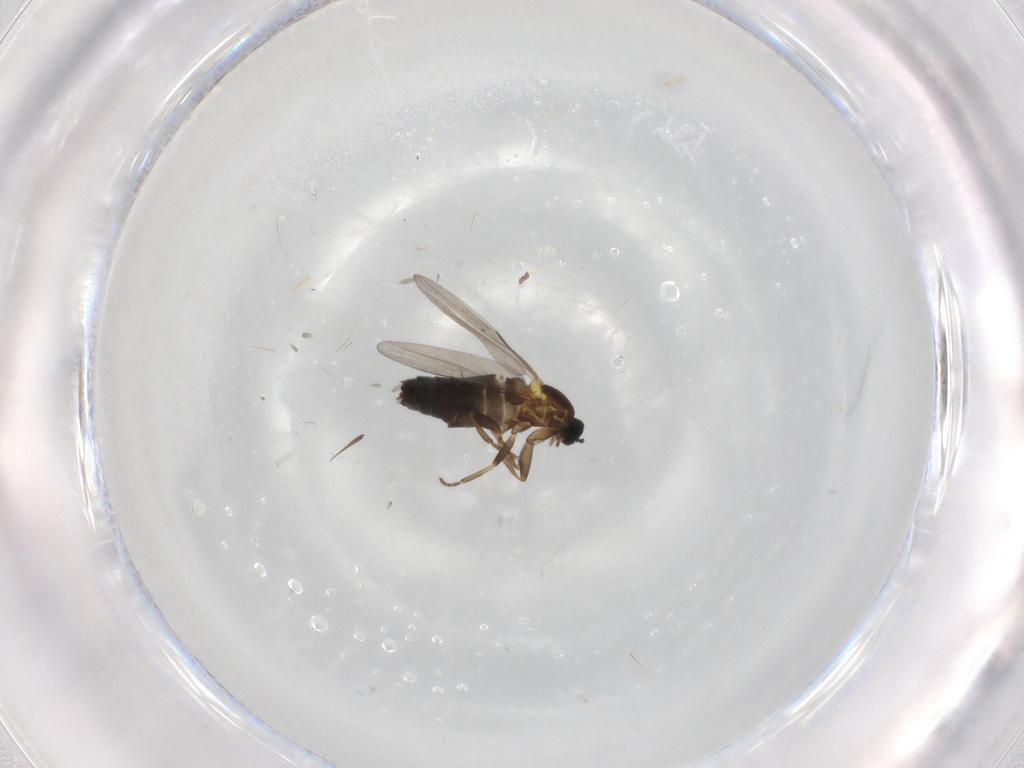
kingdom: Animalia
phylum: Arthropoda
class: Insecta
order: Diptera
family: Scatopsidae
